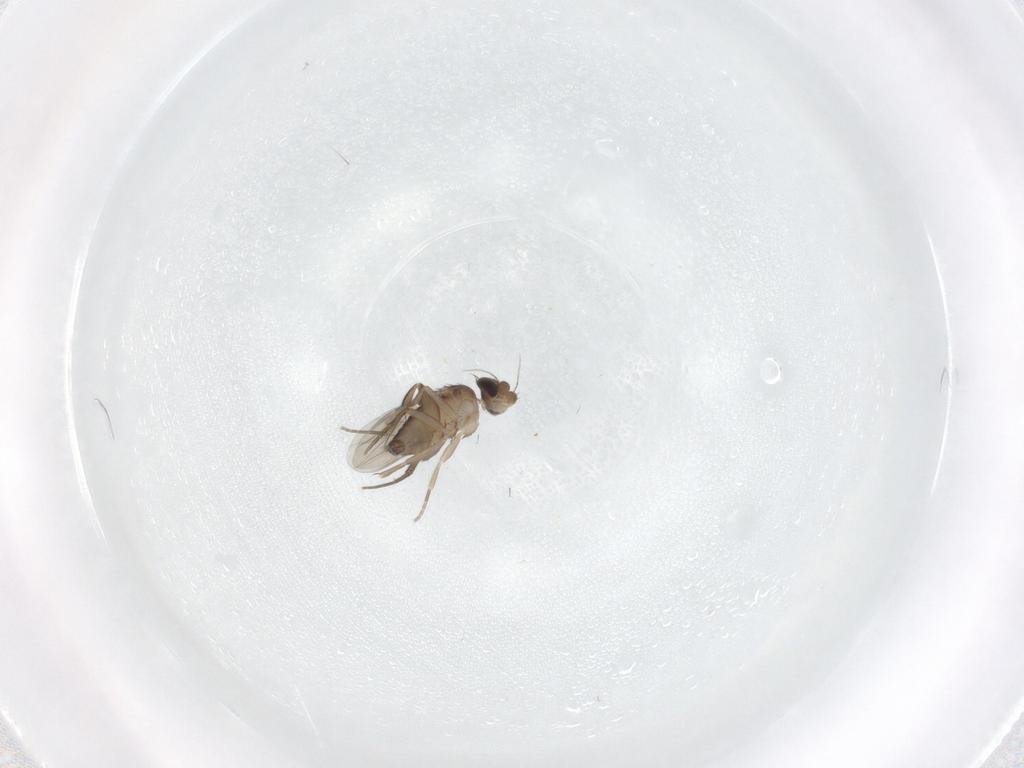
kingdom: Animalia
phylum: Arthropoda
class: Insecta
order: Diptera
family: Phoridae
